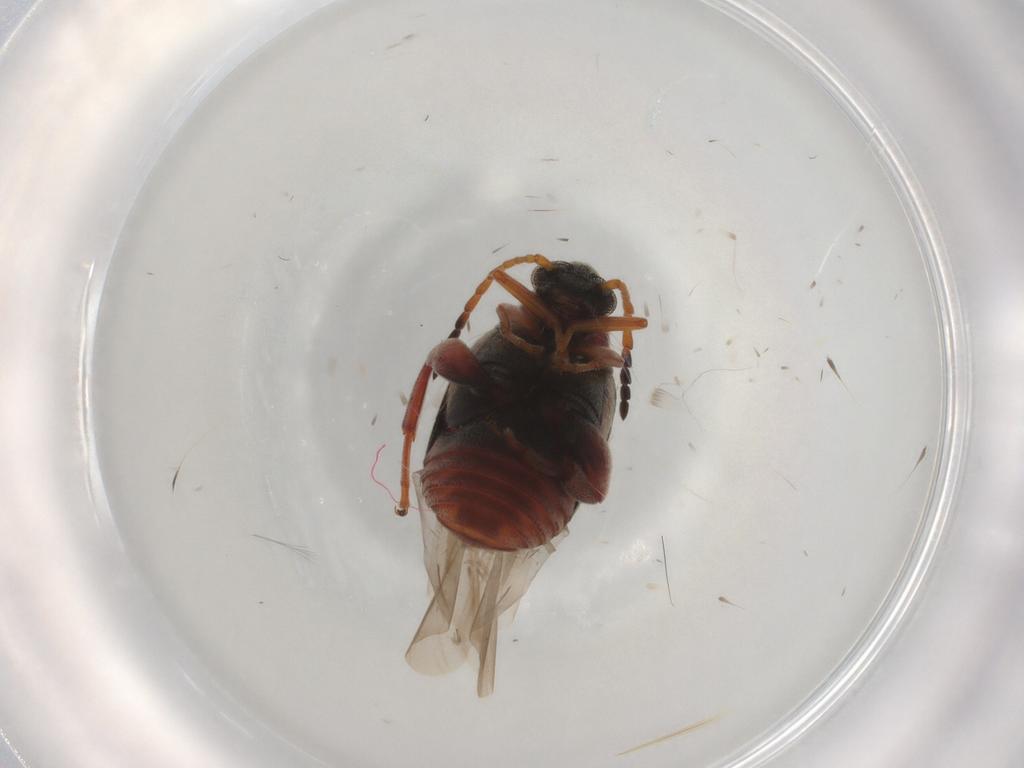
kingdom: Animalia
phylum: Arthropoda
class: Insecta
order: Coleoptera
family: Chrysomelidae
